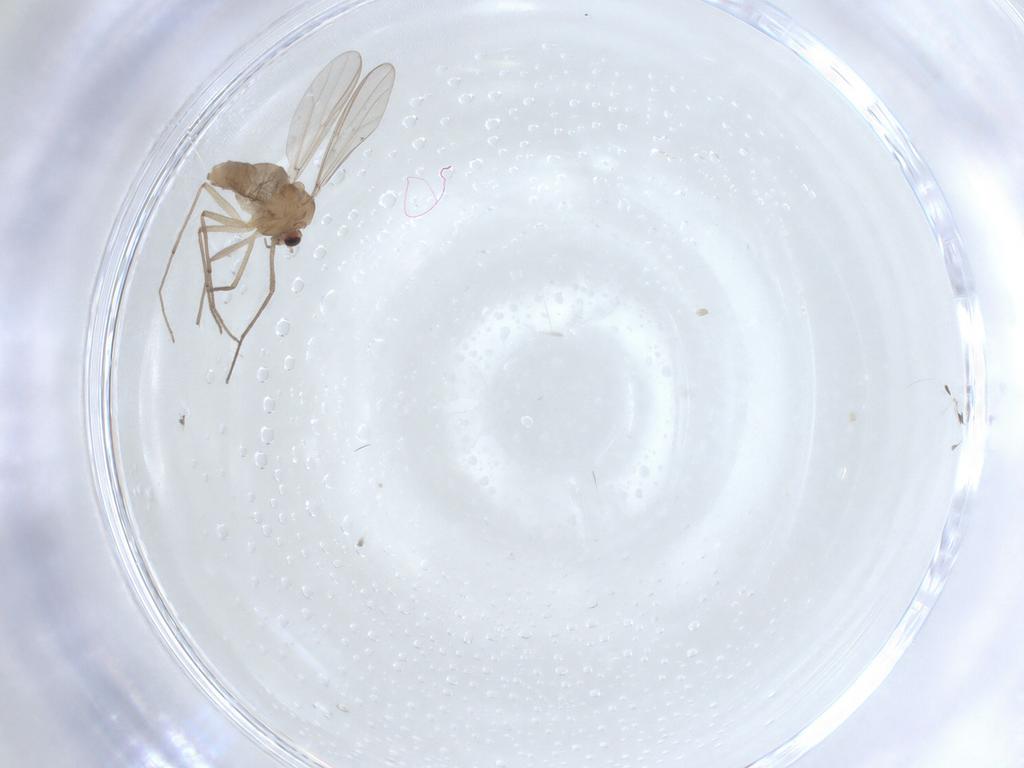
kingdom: Animalia
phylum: Arthropoda
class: Insecta
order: Diptera
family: Chironomidae
